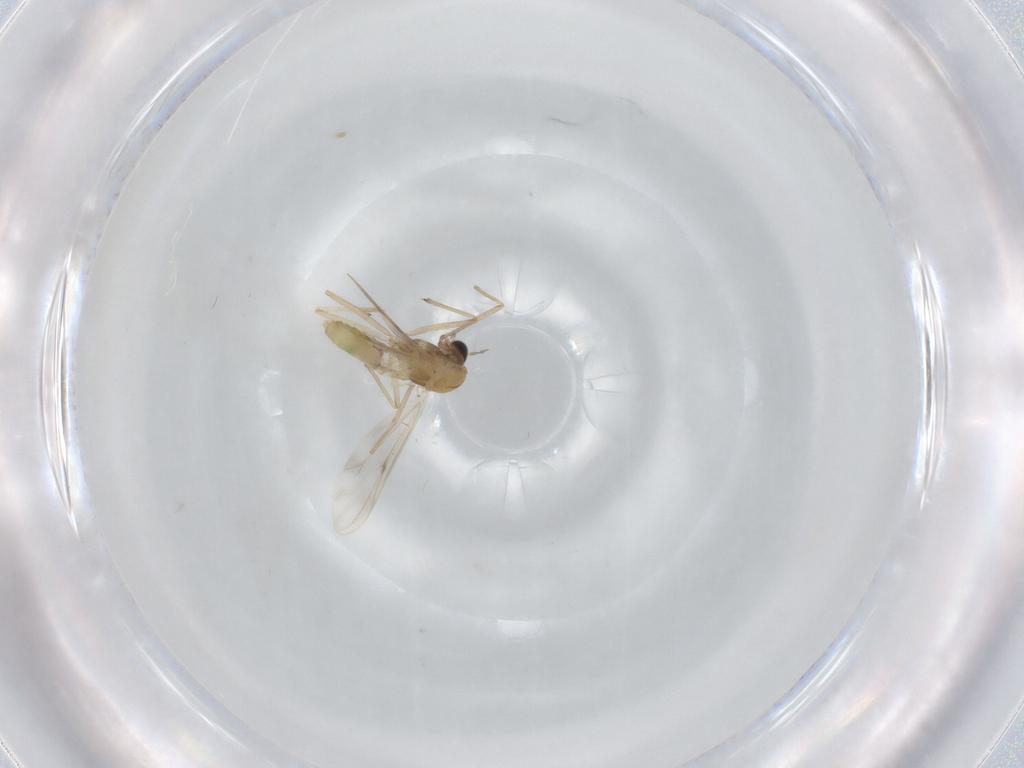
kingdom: Animalia
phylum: Arthropoda
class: Insecta
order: Diptera
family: Chironomidae
